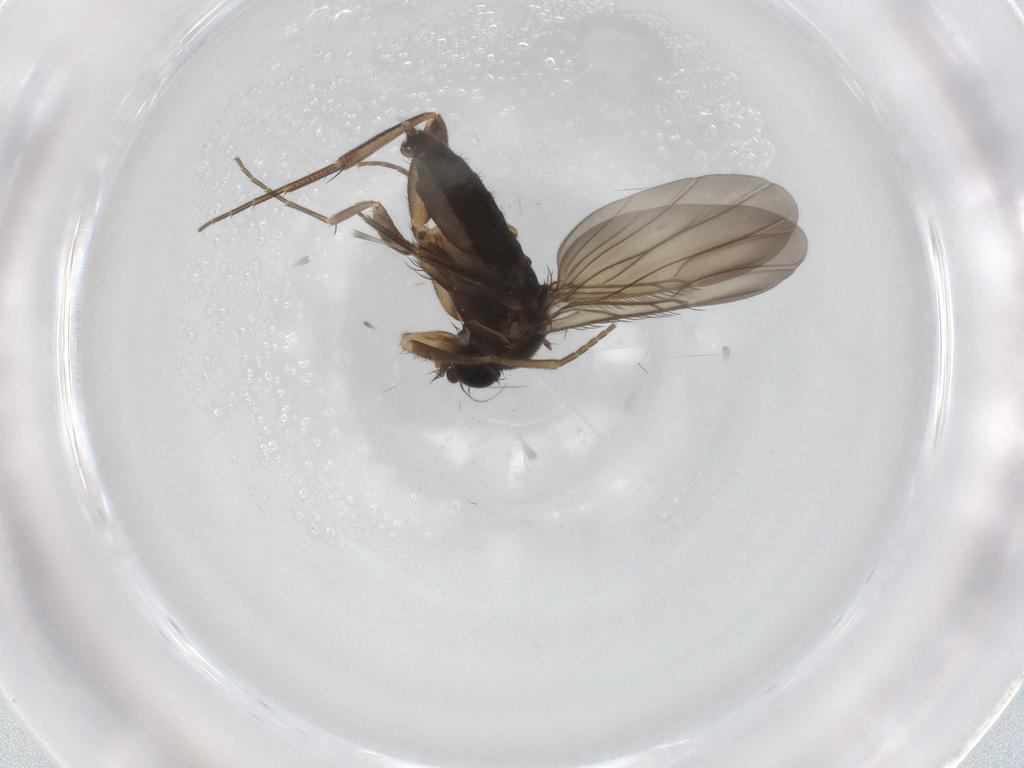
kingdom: Animalia
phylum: Arthropoda
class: Insecta
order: Diptera
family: Phoridae
